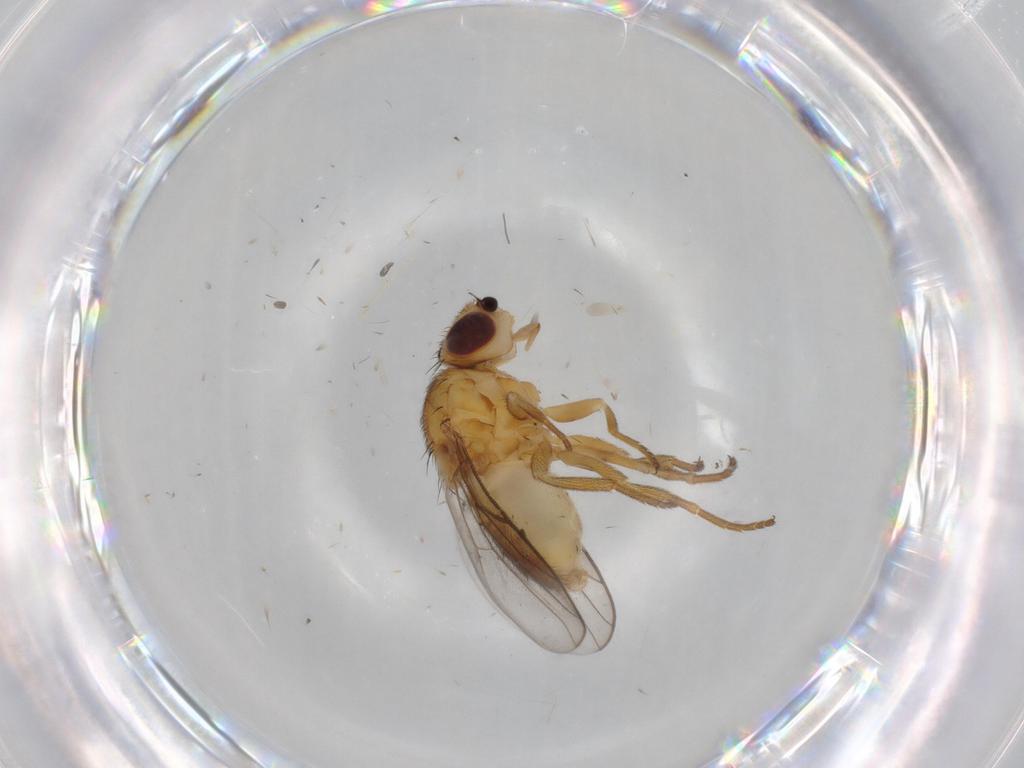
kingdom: Animalia
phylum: Arthropoda
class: Insecta
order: Diptera
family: Chloropidae
